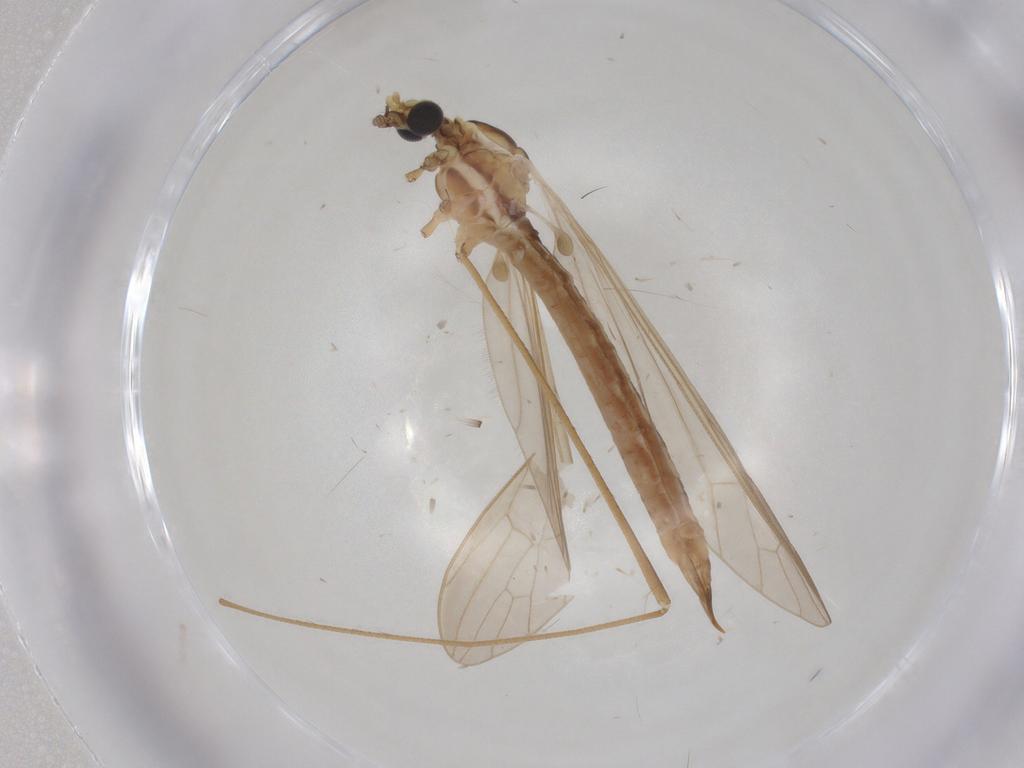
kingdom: Animalia
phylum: Arthropoda
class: Insecta
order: Diptera
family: Limoniidae
